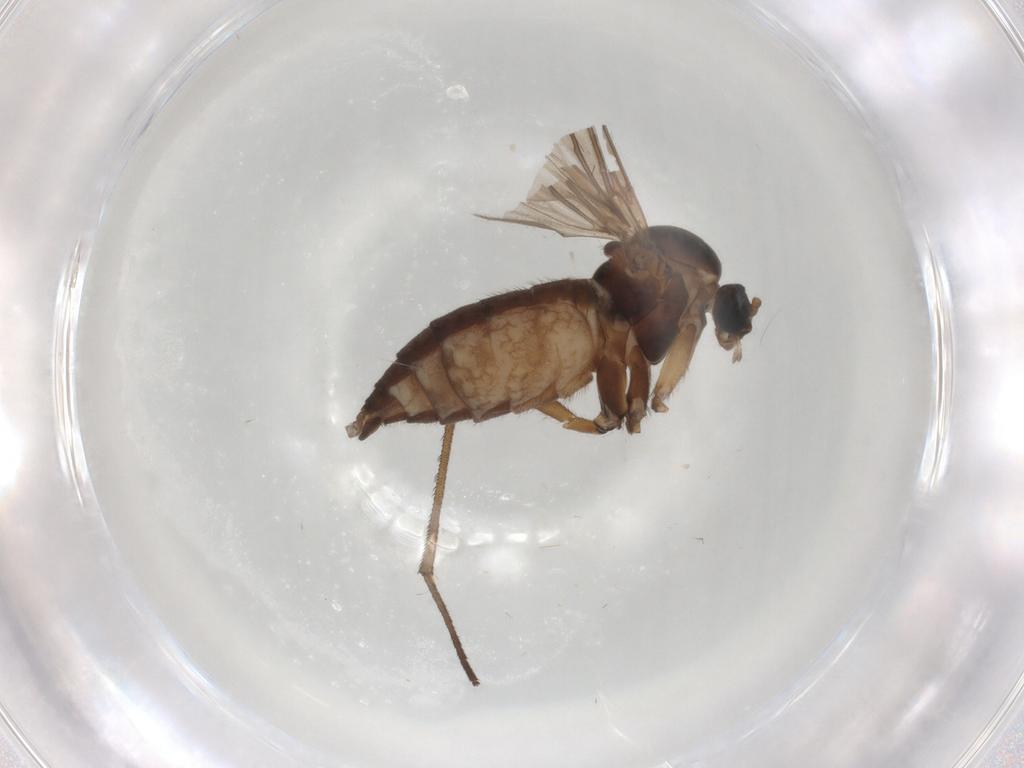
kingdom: Animalia
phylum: Arthropoda
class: Insecta
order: Diptera
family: Sciaridae
